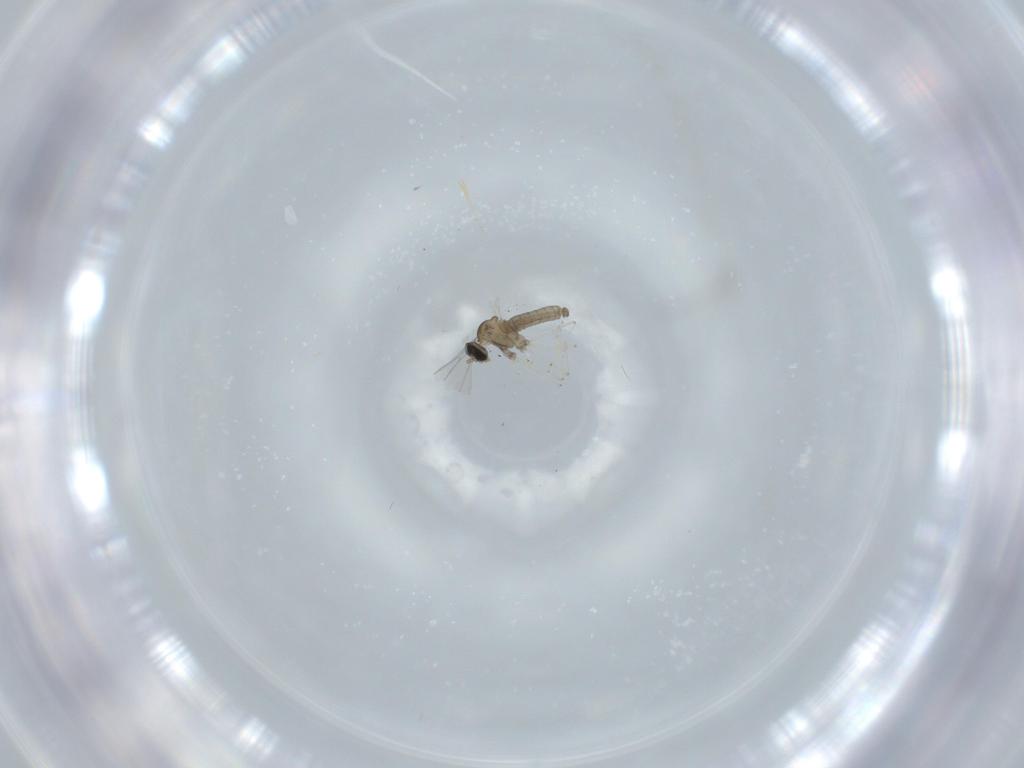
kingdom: Animalia
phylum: Arthropoda
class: Insecta
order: Diptera
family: Cecidomyiidae
